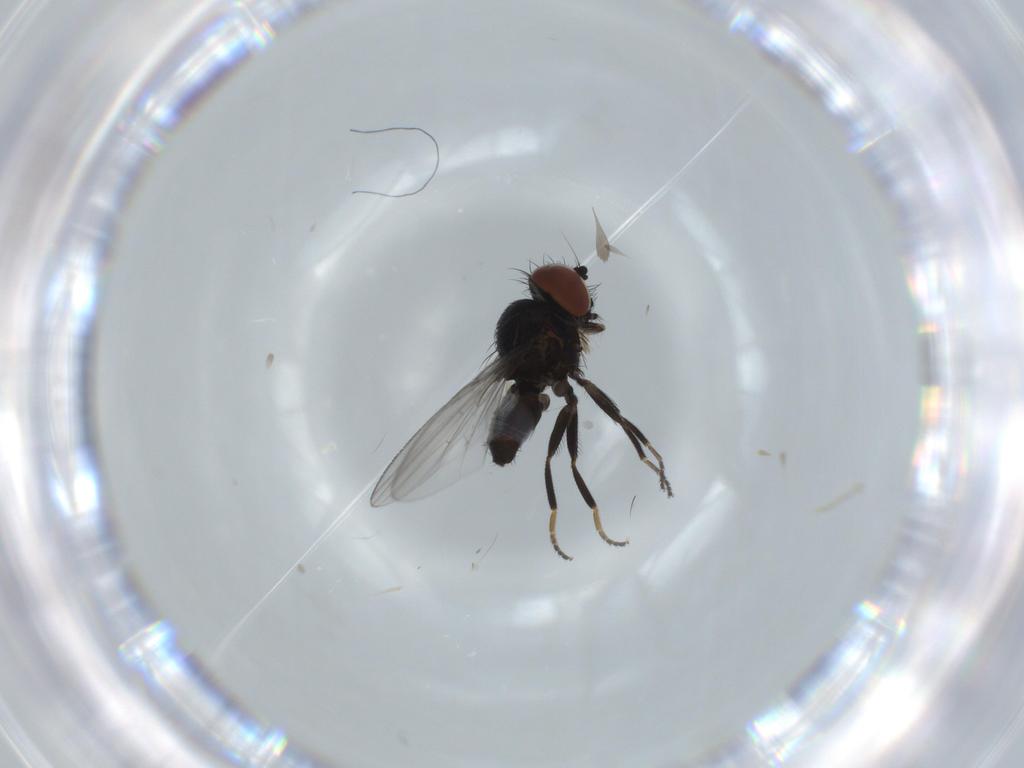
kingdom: Animalia
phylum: Arthropoda
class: Insecta
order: Diptera
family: Milichiidae
